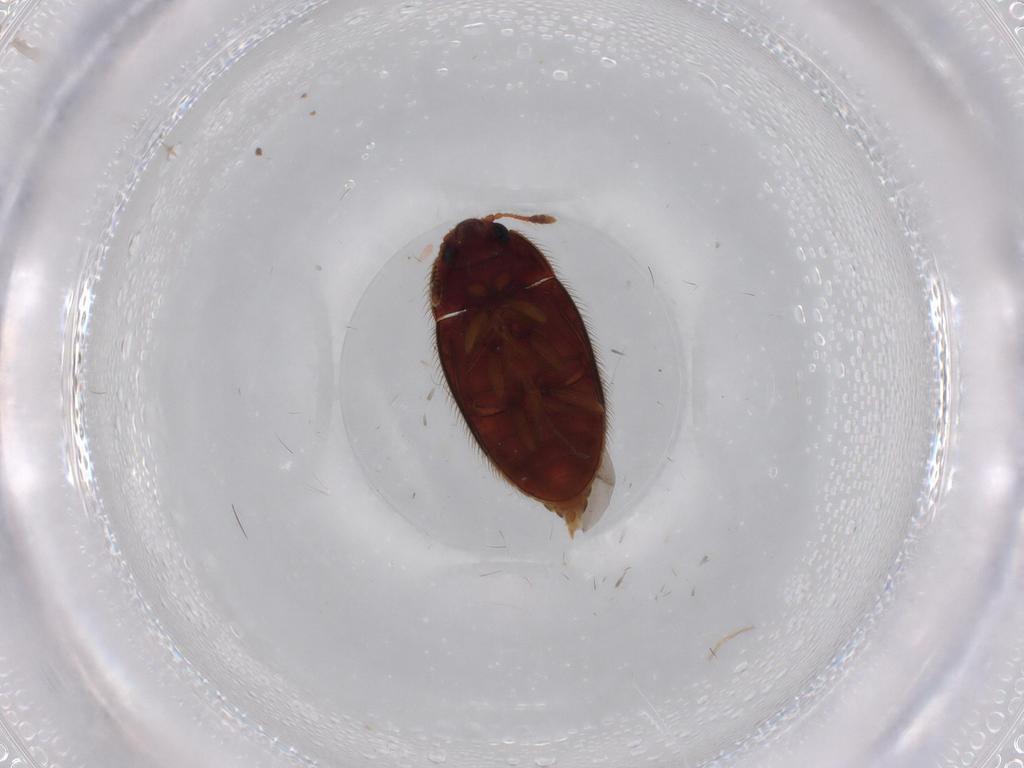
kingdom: Animalia
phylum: Arthropoda
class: Insecta
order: Coleoptera
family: Biphyllidae
